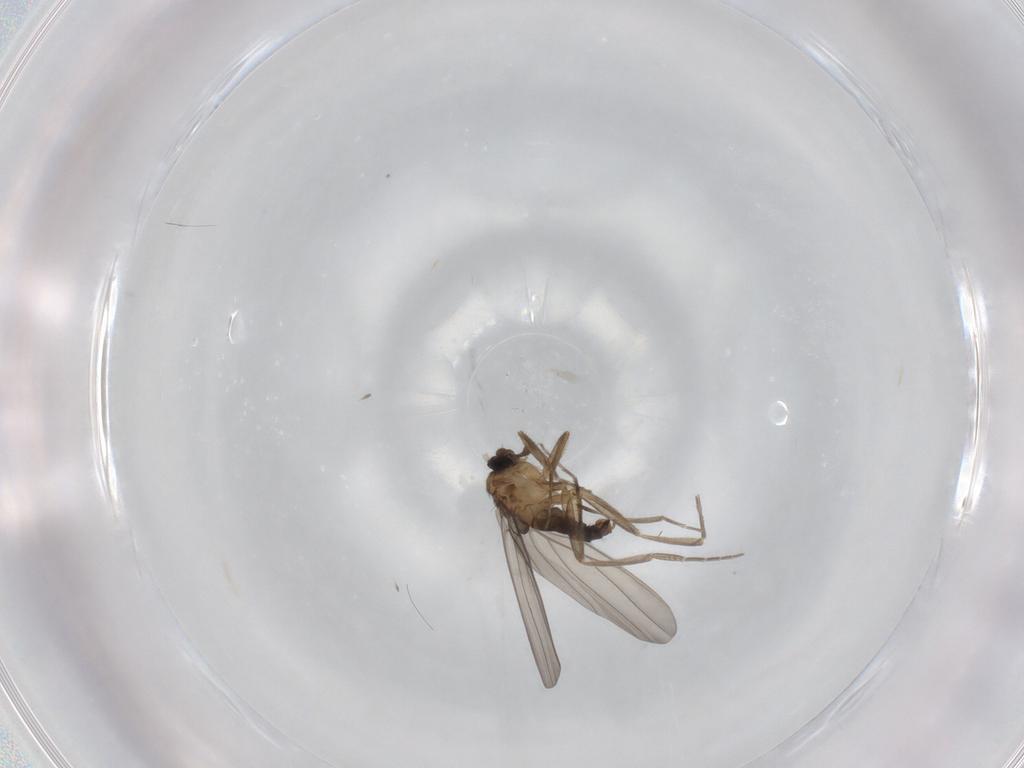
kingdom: Animalia
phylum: Arthropoda
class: Insecta
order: Diptera
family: Phoridae
